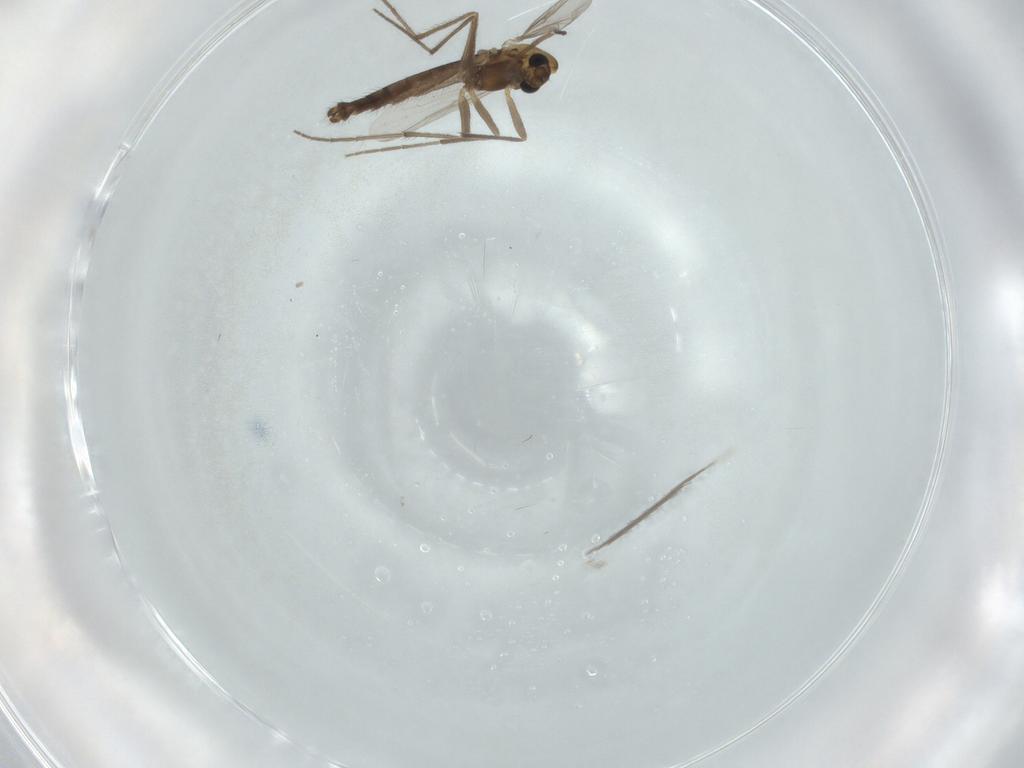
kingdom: Animalia
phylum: Arthropoda
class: Insecta
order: Diptera
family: Chironomidae
